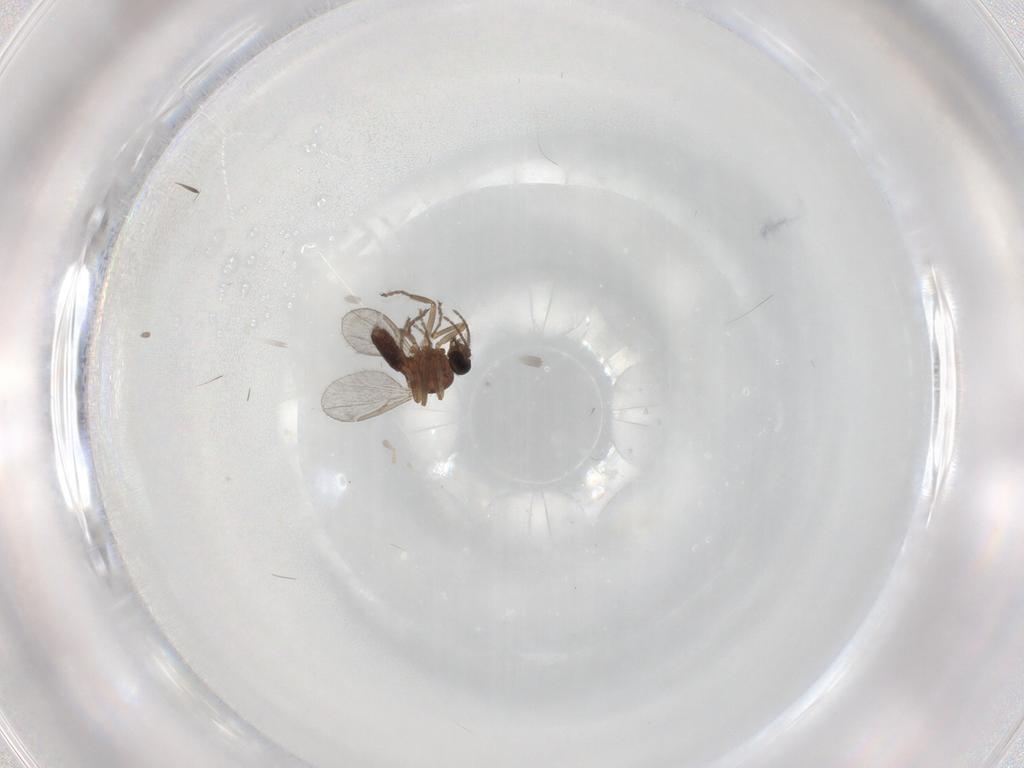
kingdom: Animalia
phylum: Arthropoda
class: Insecta
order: Diptera
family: Ceratopogonidae
